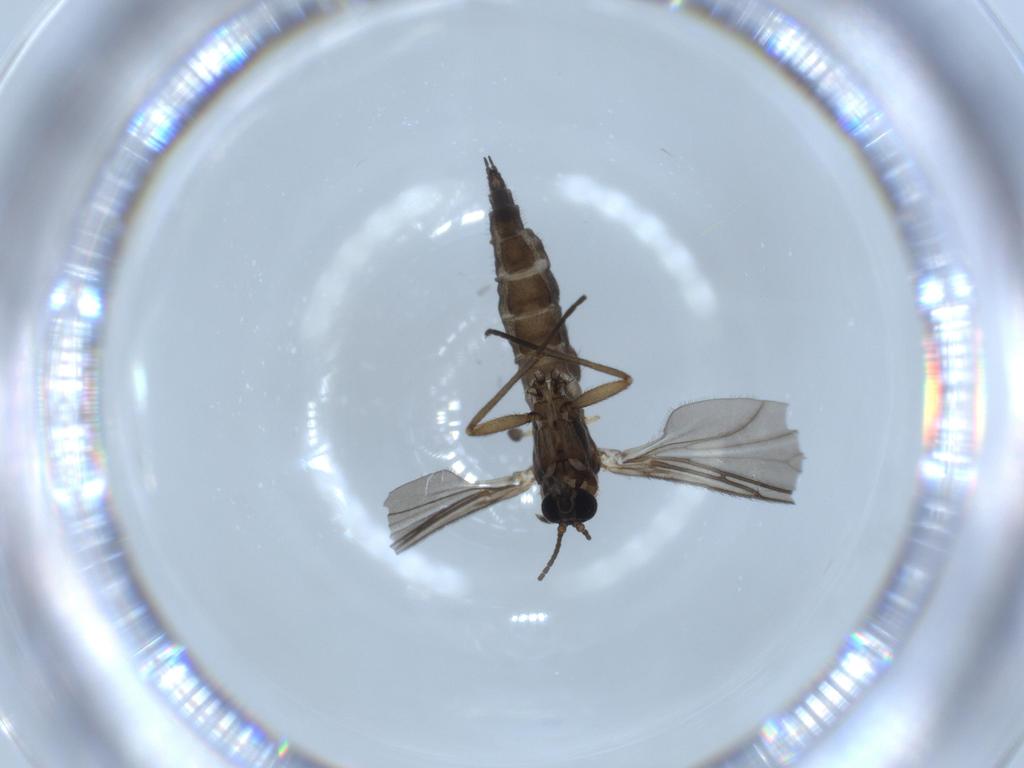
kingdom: Animalia
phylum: Arthropoda
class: Insecta
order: Diptera
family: Sciaridae
